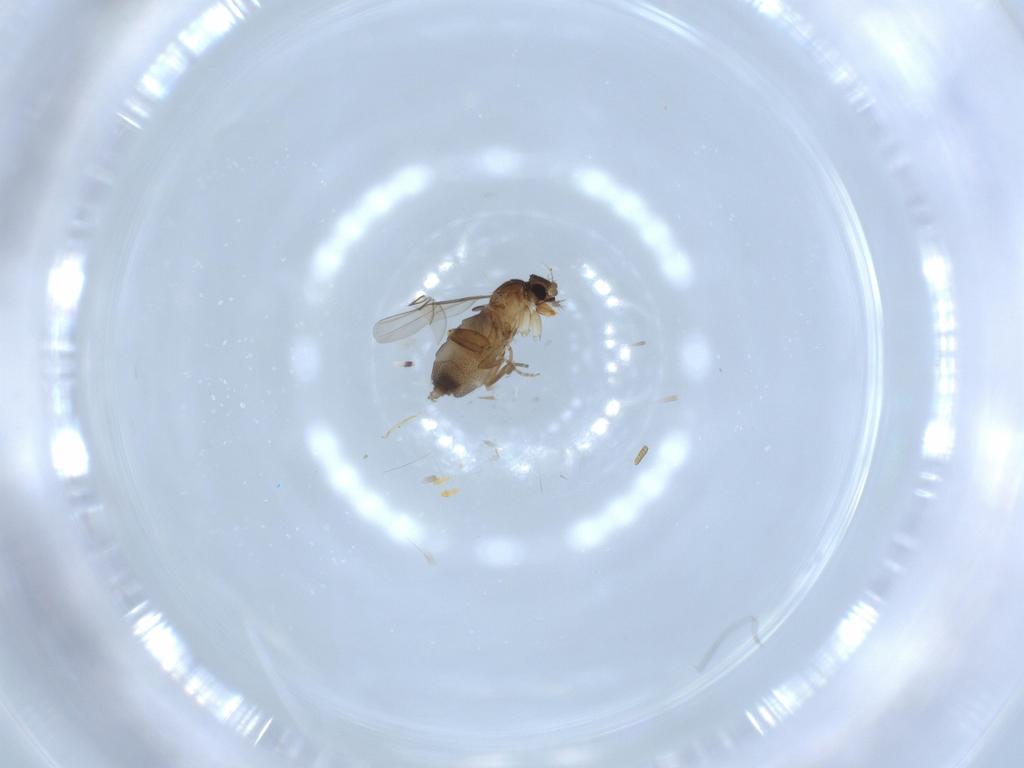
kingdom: Animalia
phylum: Arthropoda
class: Insecta
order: Diptera
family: Phoridae
